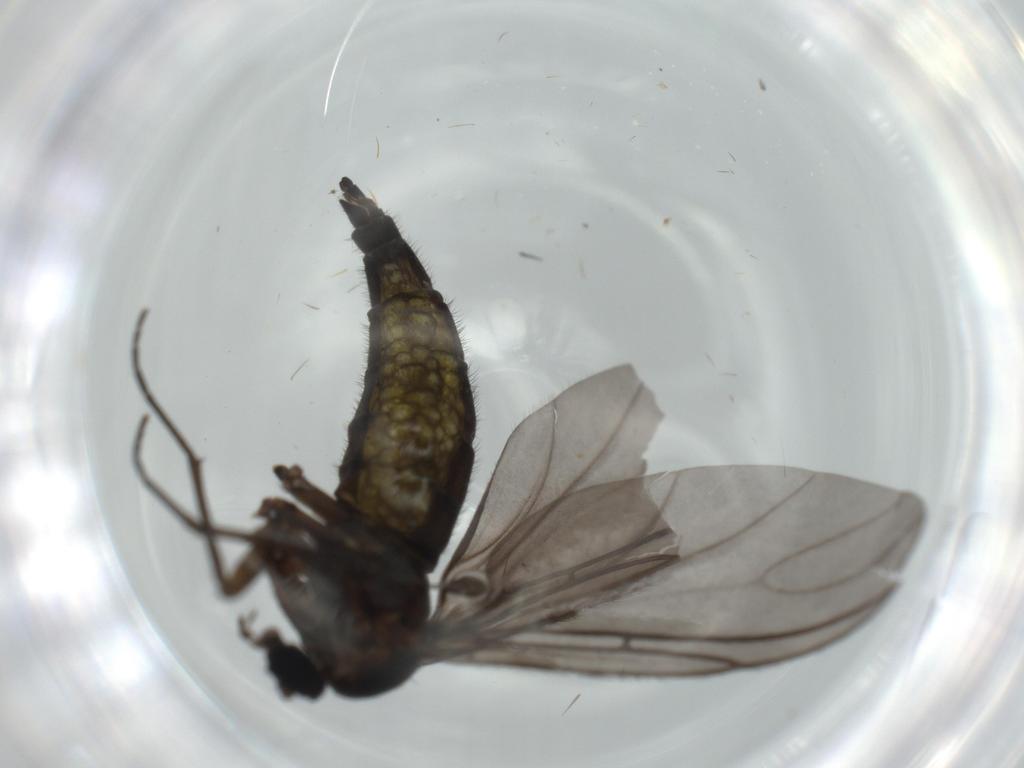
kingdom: Animalia
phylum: Arthropoda
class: Insecta
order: Diptera
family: Sciaridae
